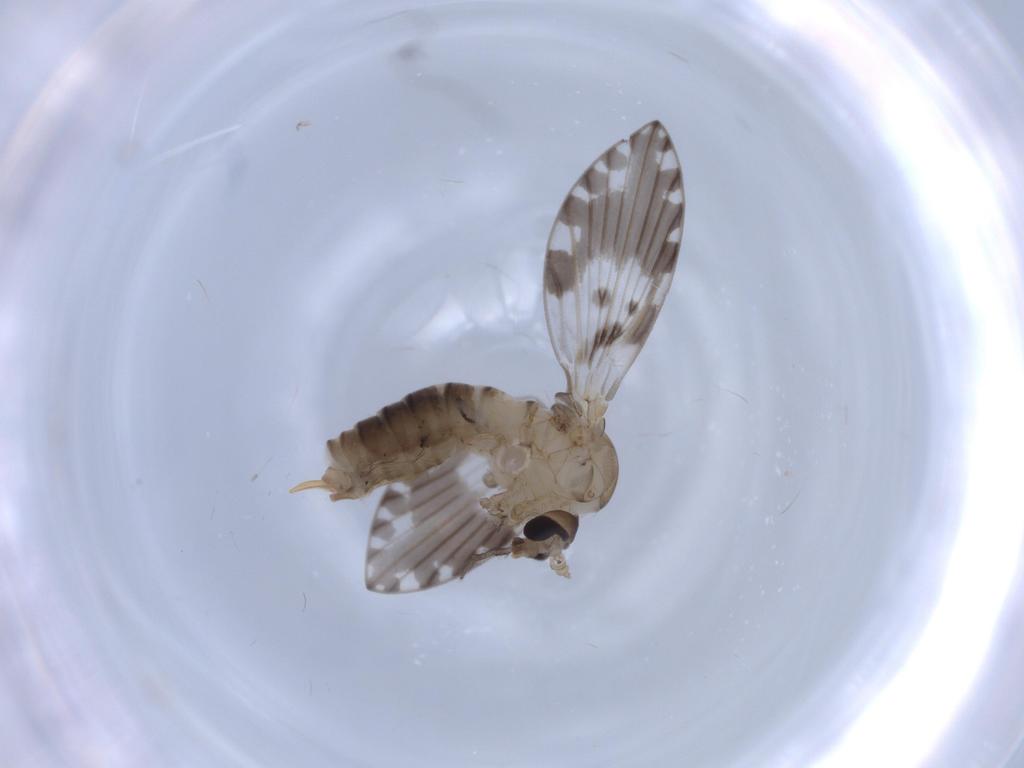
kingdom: Animalia
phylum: Arthropoda
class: Insecta
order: Diptera
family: Psychodidae
